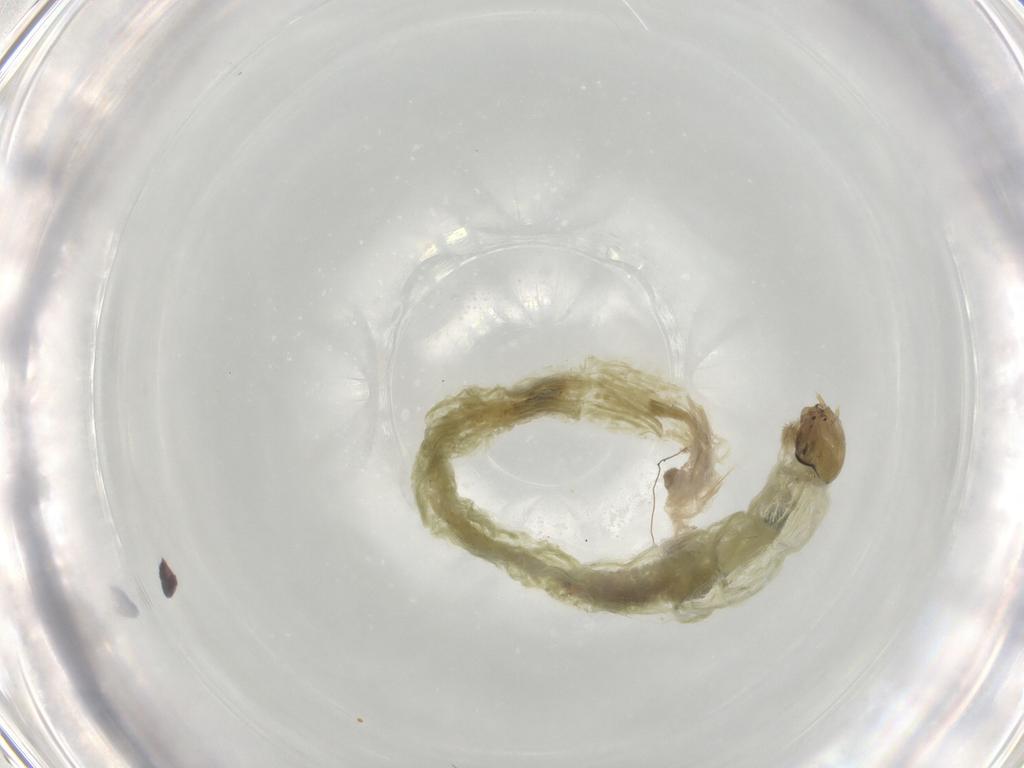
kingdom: Animalia
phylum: Arthropoda
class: Insecta
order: Diptera
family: Chironomidae
